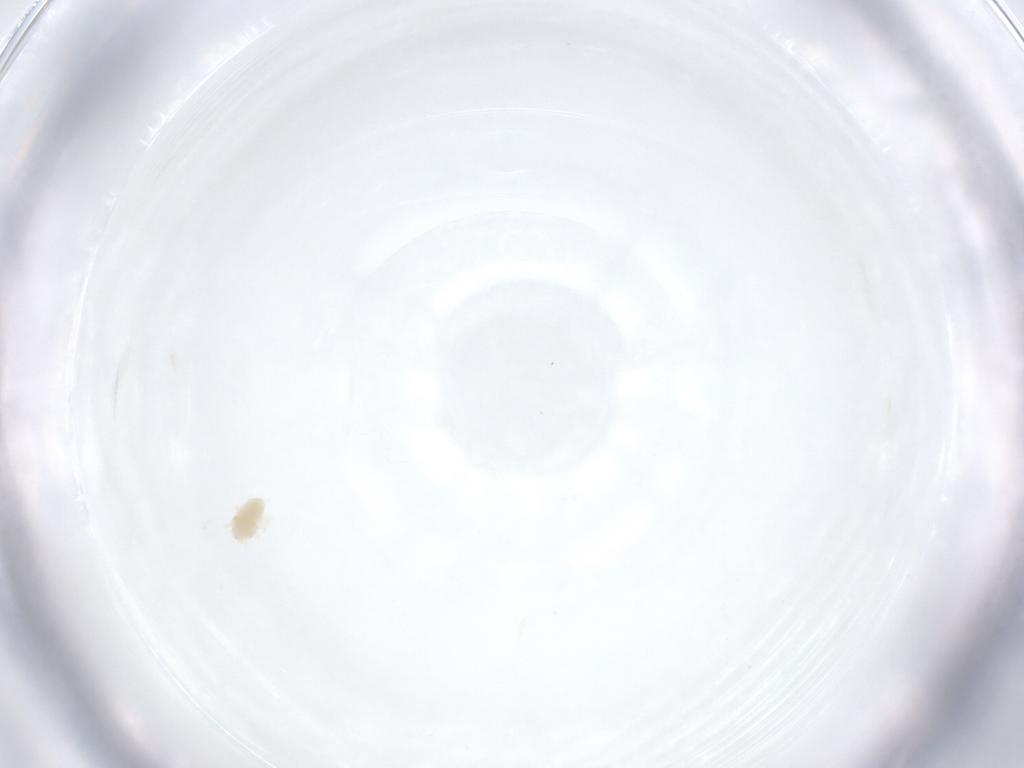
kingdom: Animalia
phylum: Arthropoda
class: Arachnida
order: Trombidiformes
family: Eupodidae
